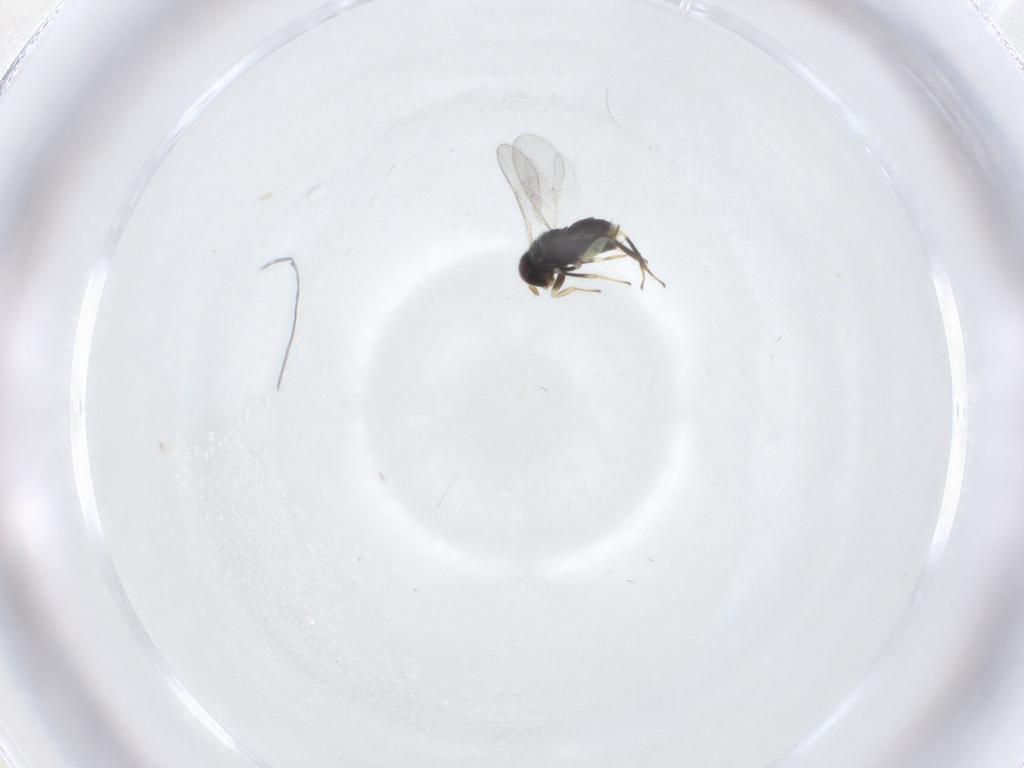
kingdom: Animalia
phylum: Arthropoda
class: Insecta
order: Hymenoptera
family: Aphelinidae
